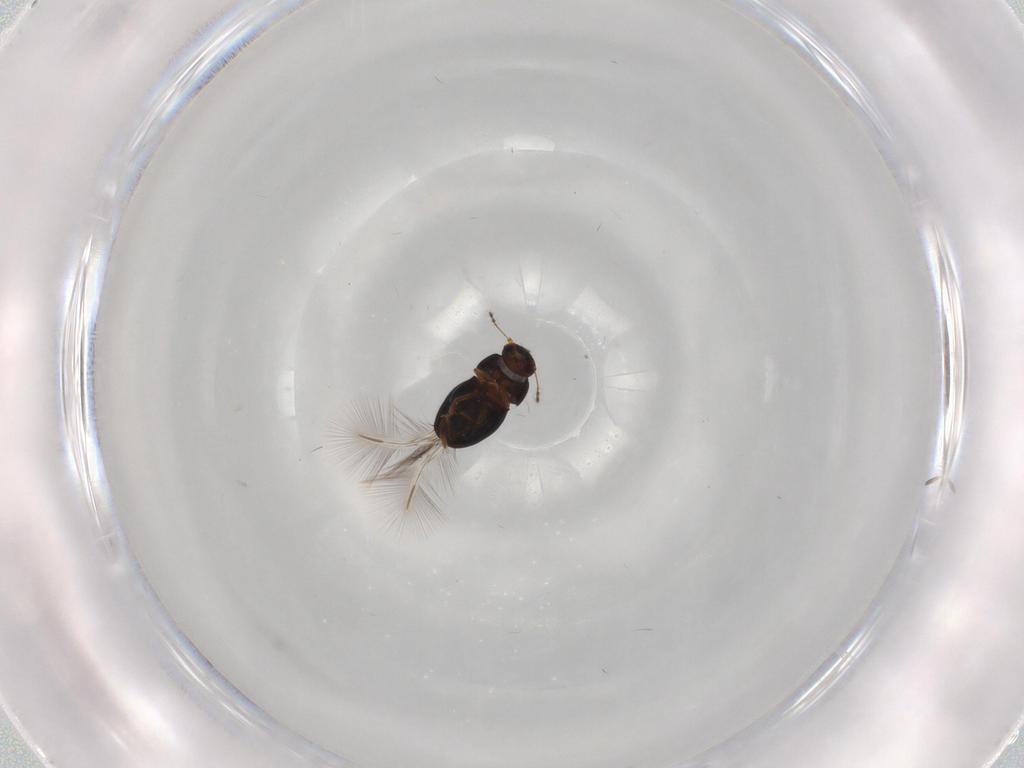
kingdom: Animalia
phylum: Arthropoda
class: Insecta
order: Coleoptera
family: Ptiliidae
